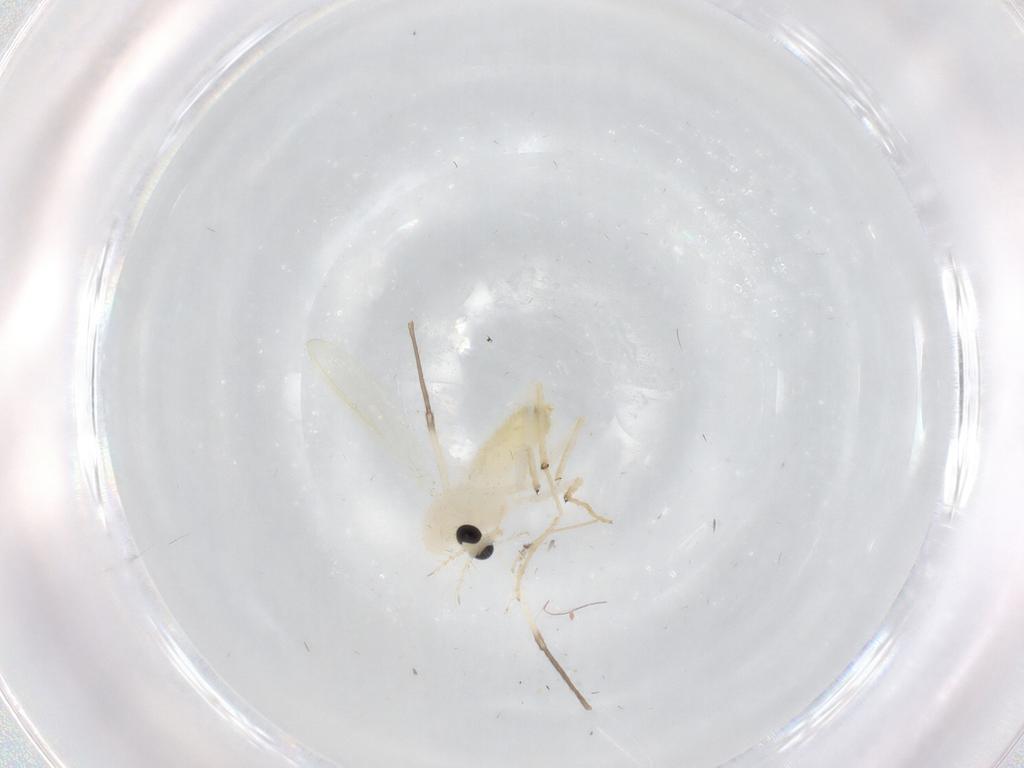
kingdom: Animalia
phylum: Arthropoda
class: Insecta
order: Diptera
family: Chironomidae
